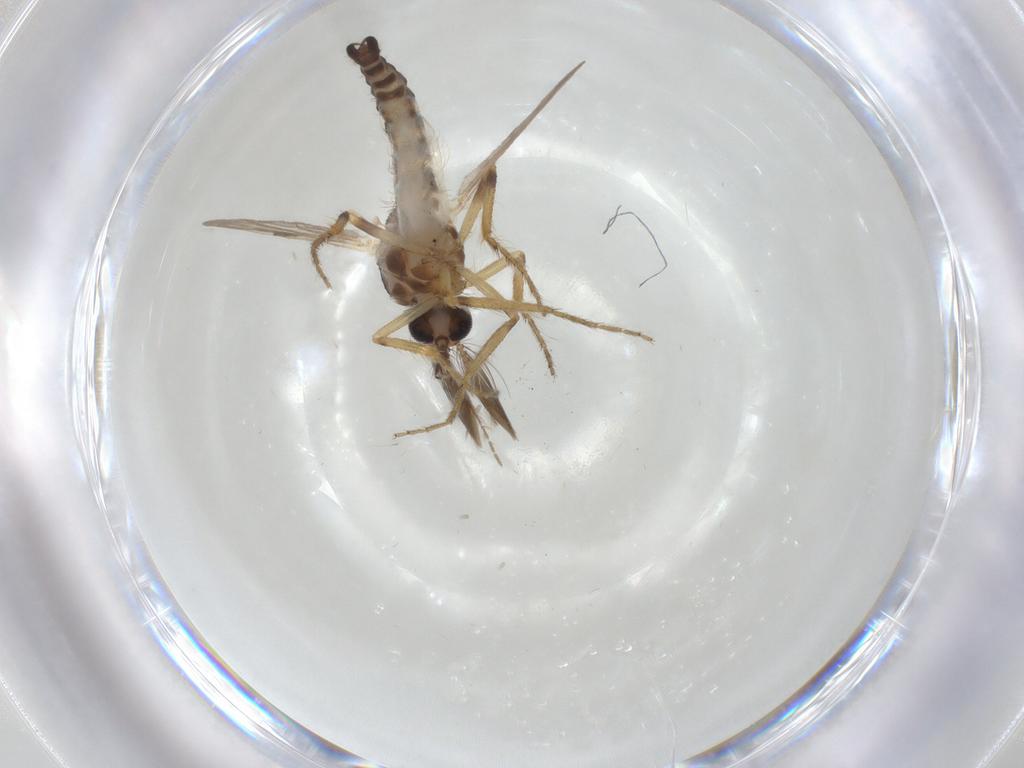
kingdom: Animalia
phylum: Arthropoda
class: Insecta
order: Diptera
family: Ceratopogonidae
